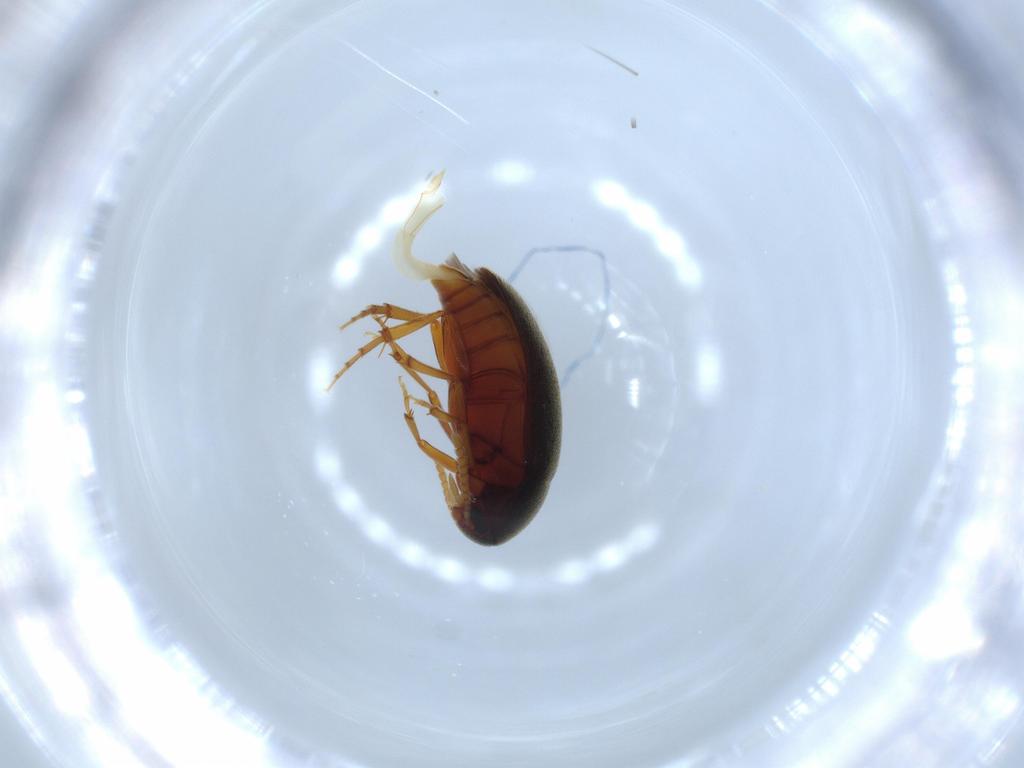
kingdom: Animalia
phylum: Arthropoda
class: Insecta
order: Coleoptera
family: Scraptiidae
